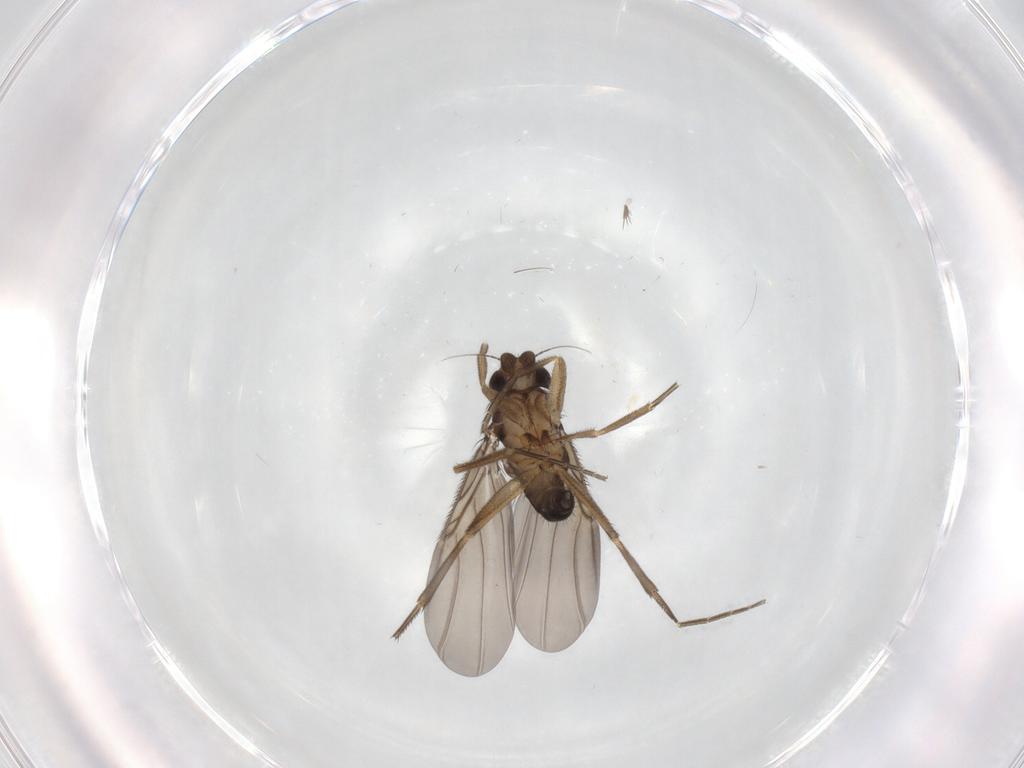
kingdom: Animalia
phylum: Arthropoda
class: Insecta
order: Diptera
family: Phoridae
